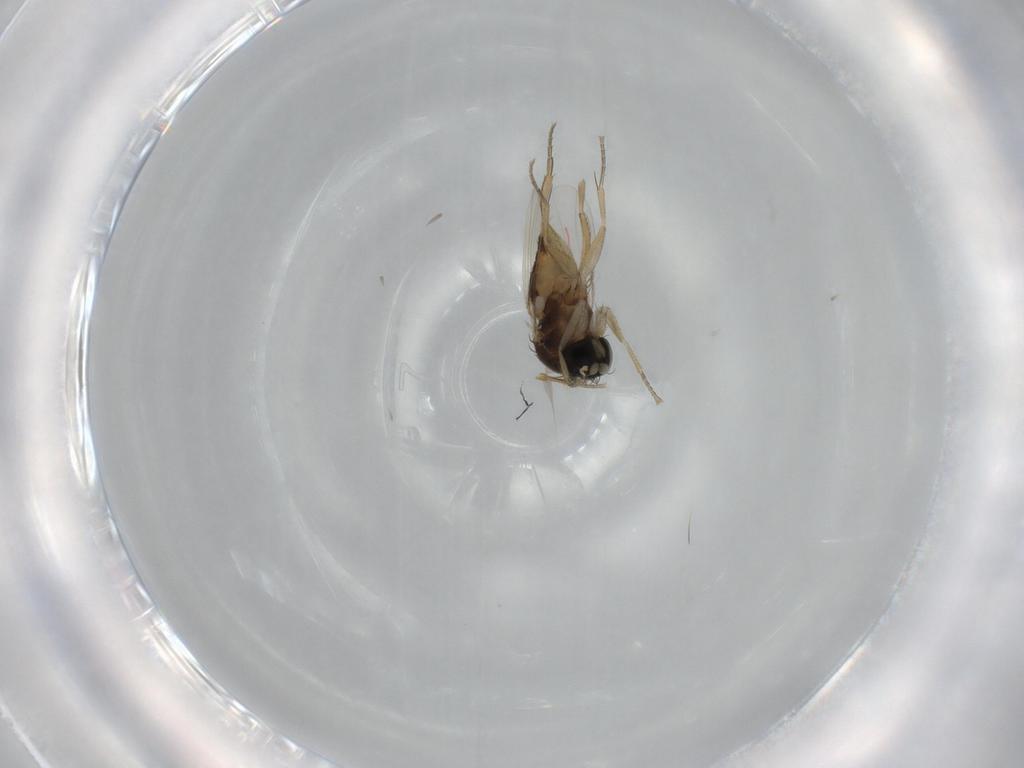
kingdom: Animalia
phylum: Arthropoda
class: Insecta
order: Diptera
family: Phoridae
